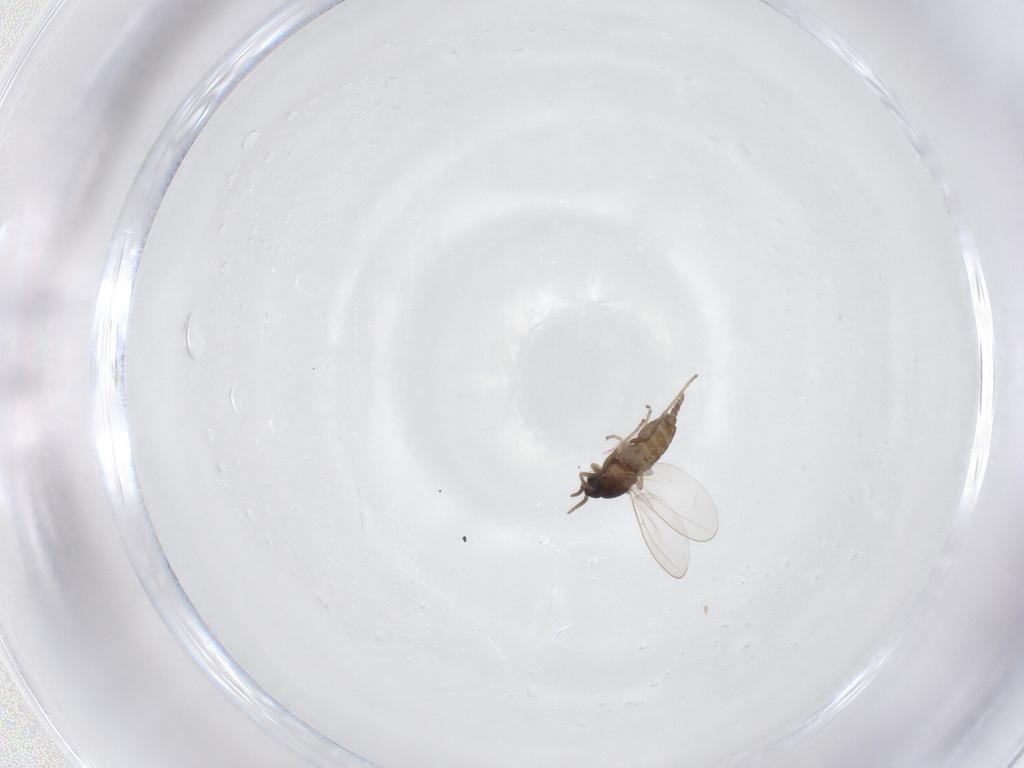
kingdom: Animalia
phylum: Arthropoda
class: Insecta
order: Diptera
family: Cecidomyiidae
